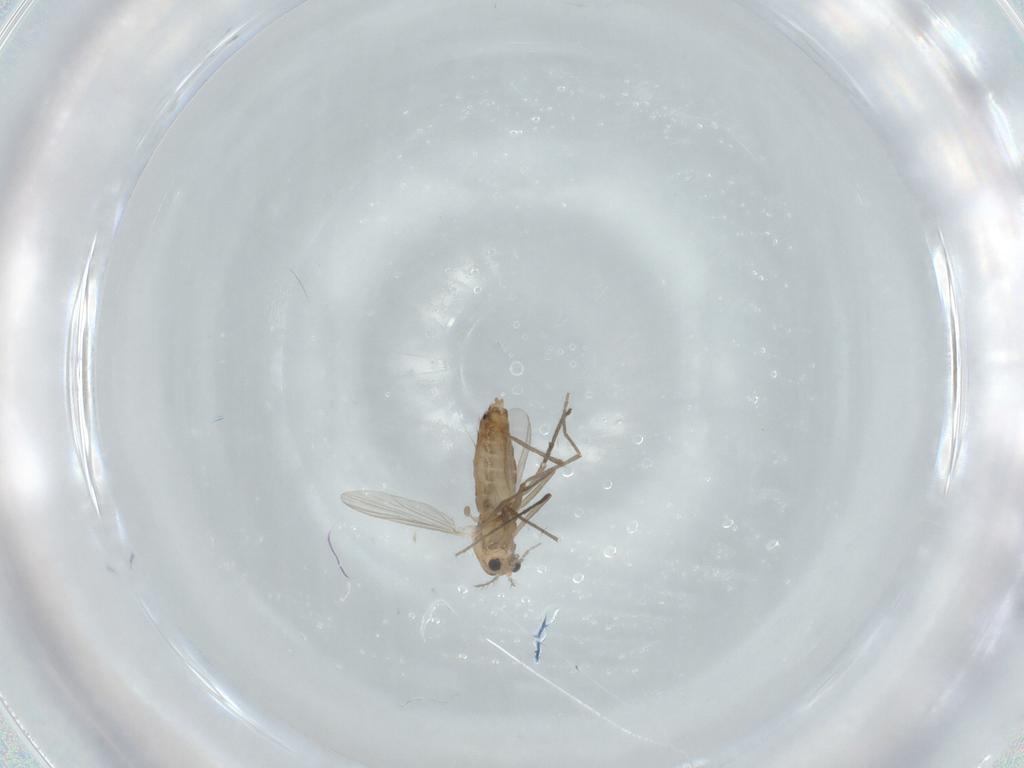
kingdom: Animalia
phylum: Arthropoda
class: Insecta
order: Diptera
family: Chironomidae
